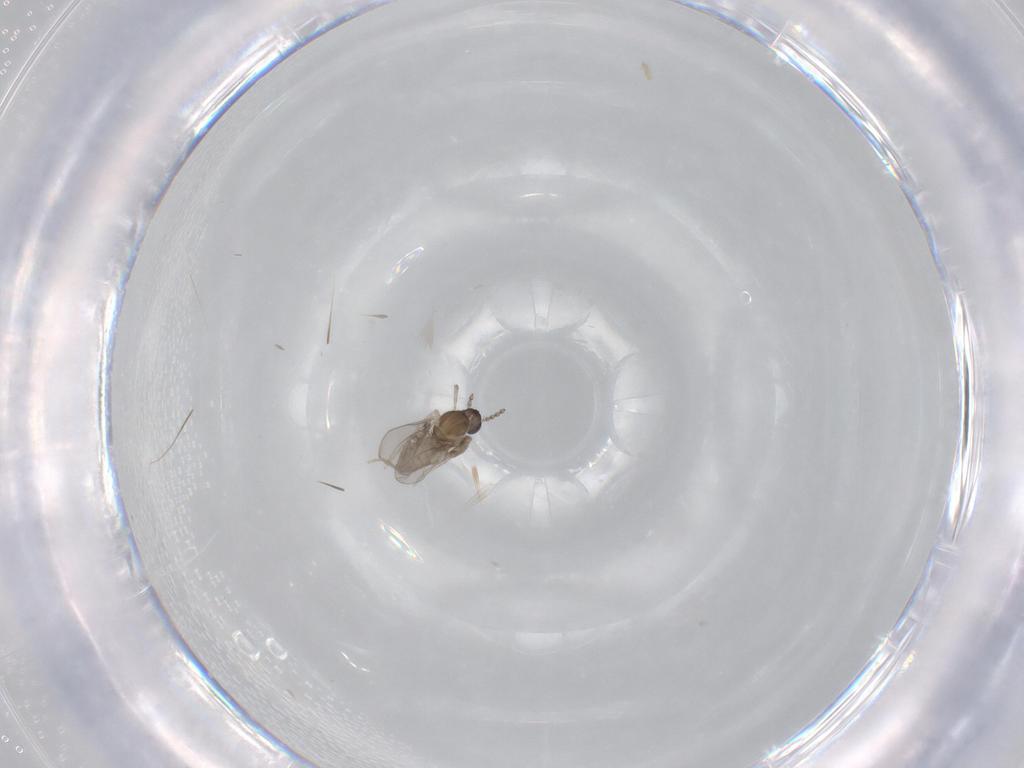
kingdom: Animalia
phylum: Arthropoda
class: Insecta
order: Diptera
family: Cecidomyiidae
